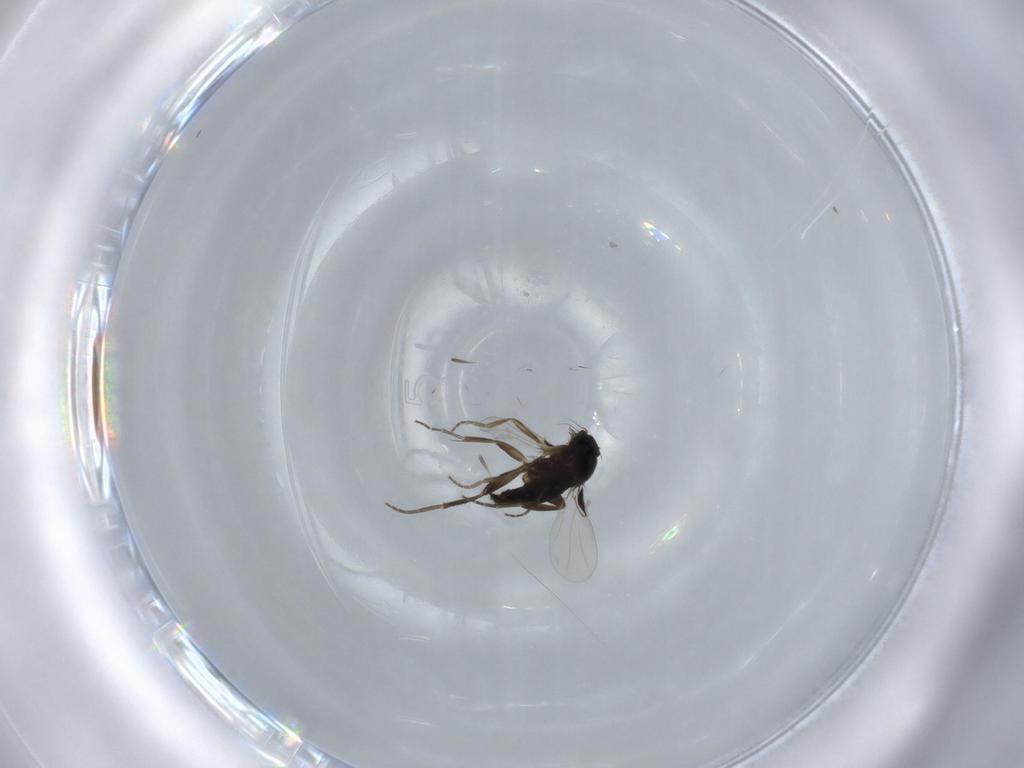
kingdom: Animalia
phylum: Arthropoda
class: Insecta
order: Diptera
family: Phoridae
